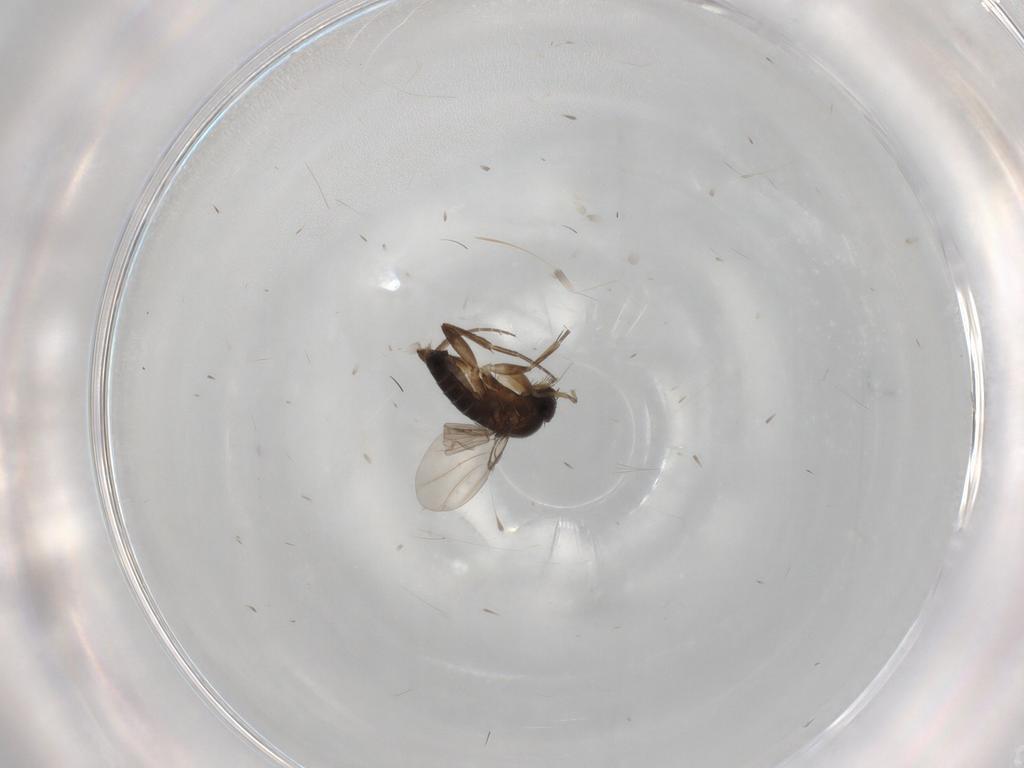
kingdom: Animalia
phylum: Arthropoda
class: Insecta
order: Diptera
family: Phoridae
